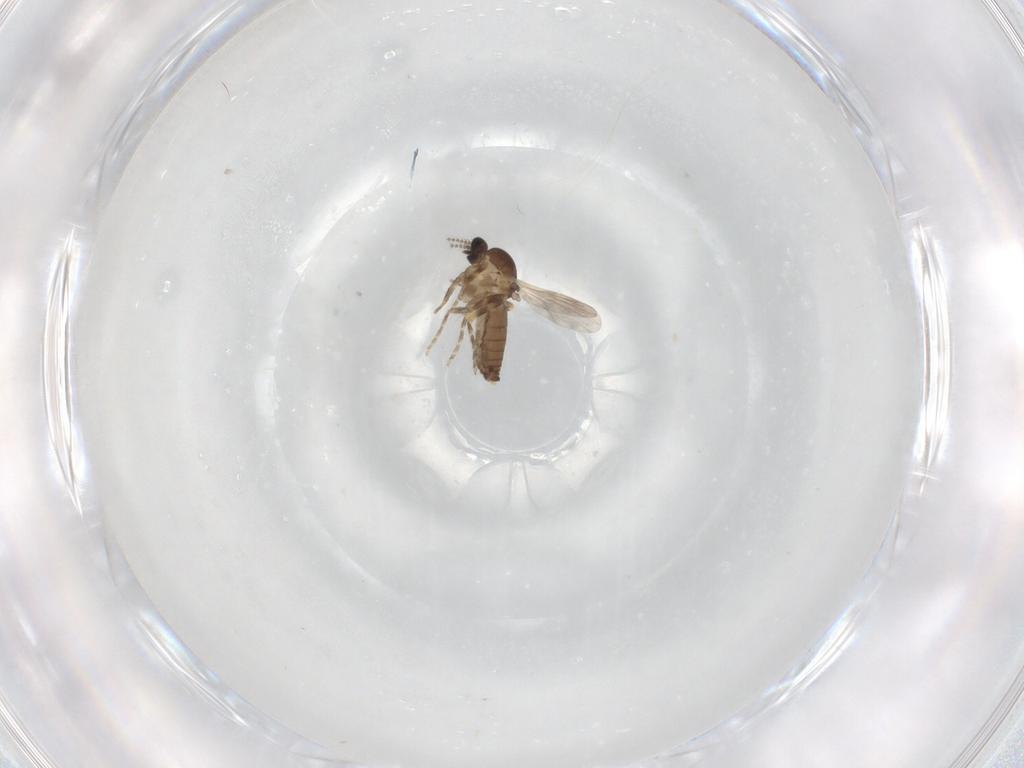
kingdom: Animalia
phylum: Arthropoda
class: Insecta
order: Diptera
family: Ceratopogonidae
